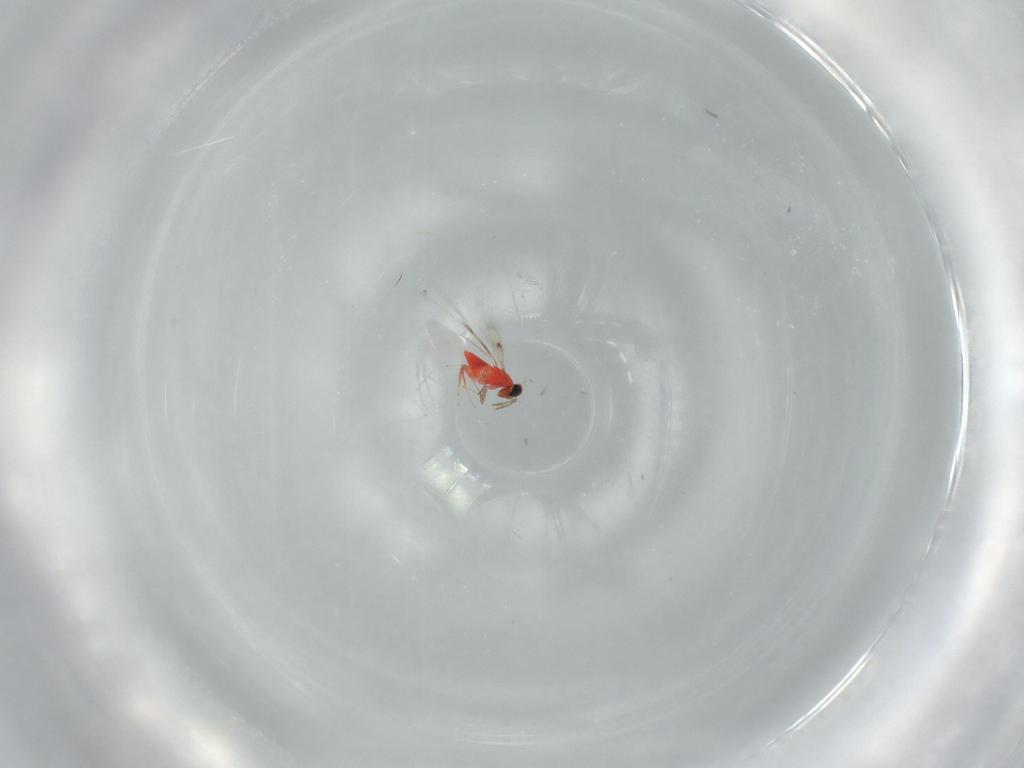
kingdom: Animalia
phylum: Arthropoda
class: Insecta
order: Hymenoptera
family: Trichogrammatidae
